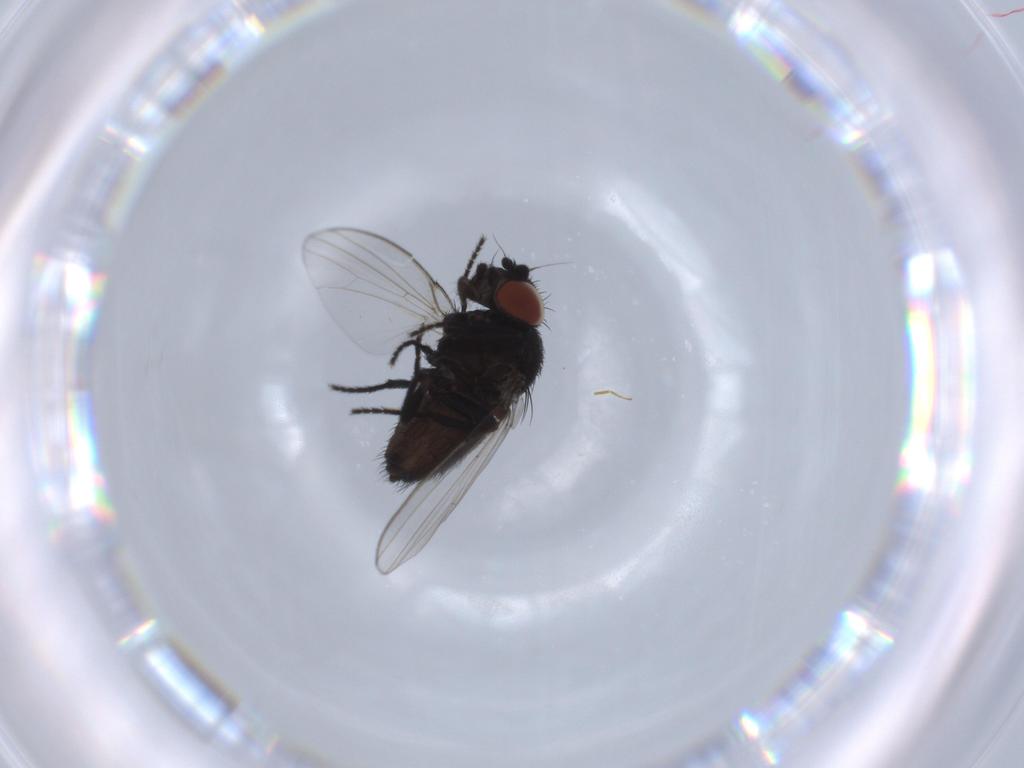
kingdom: Animalia
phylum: Arthropoda
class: Insecta
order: Diptera
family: Milichiidae
